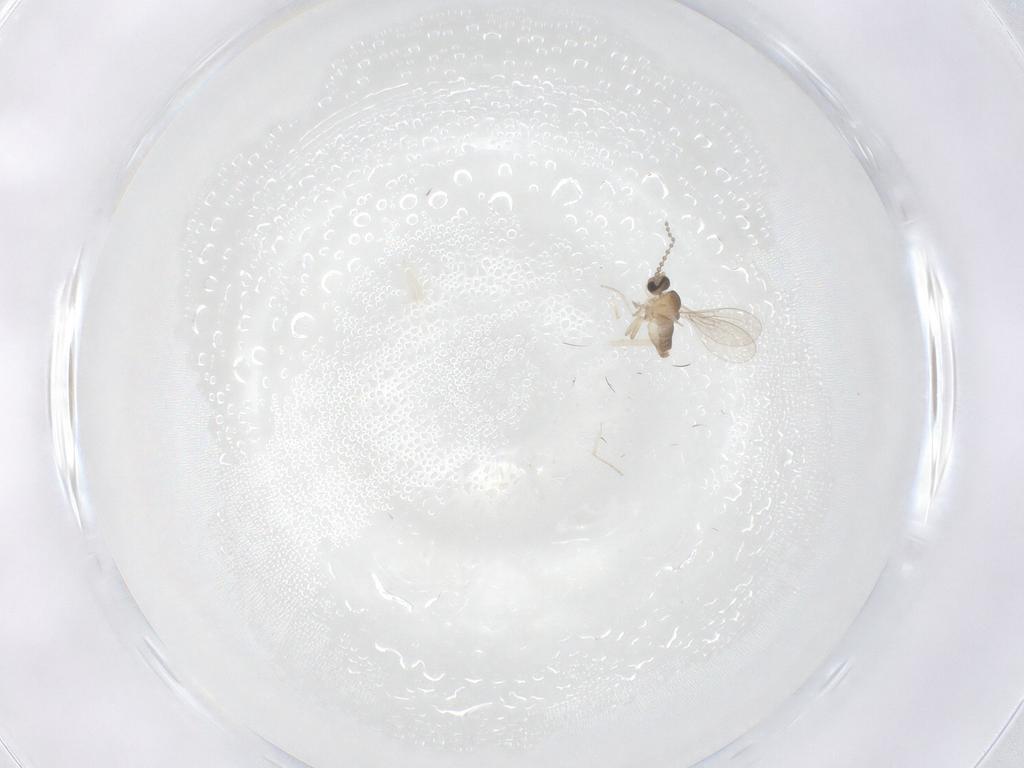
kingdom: Animalia
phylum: Arthropoda
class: Insecta
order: Diptera
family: Cecidomyiidae
